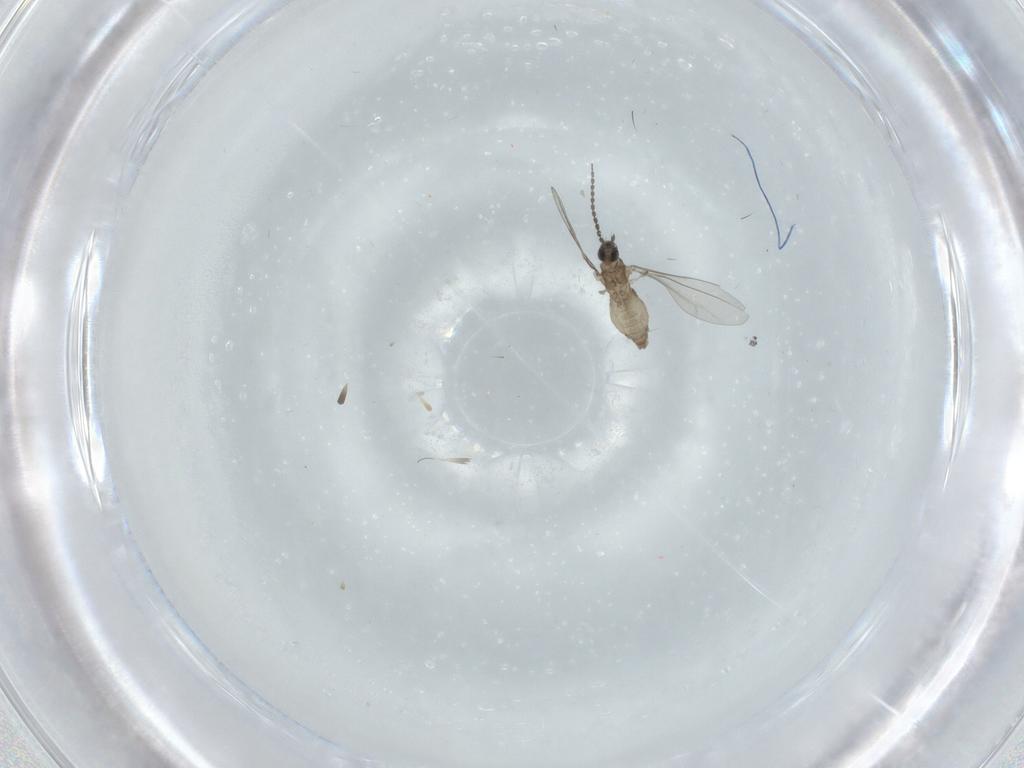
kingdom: Animalia
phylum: Arthropoda
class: Insecta
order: Diptera
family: Cecidomyiidae
